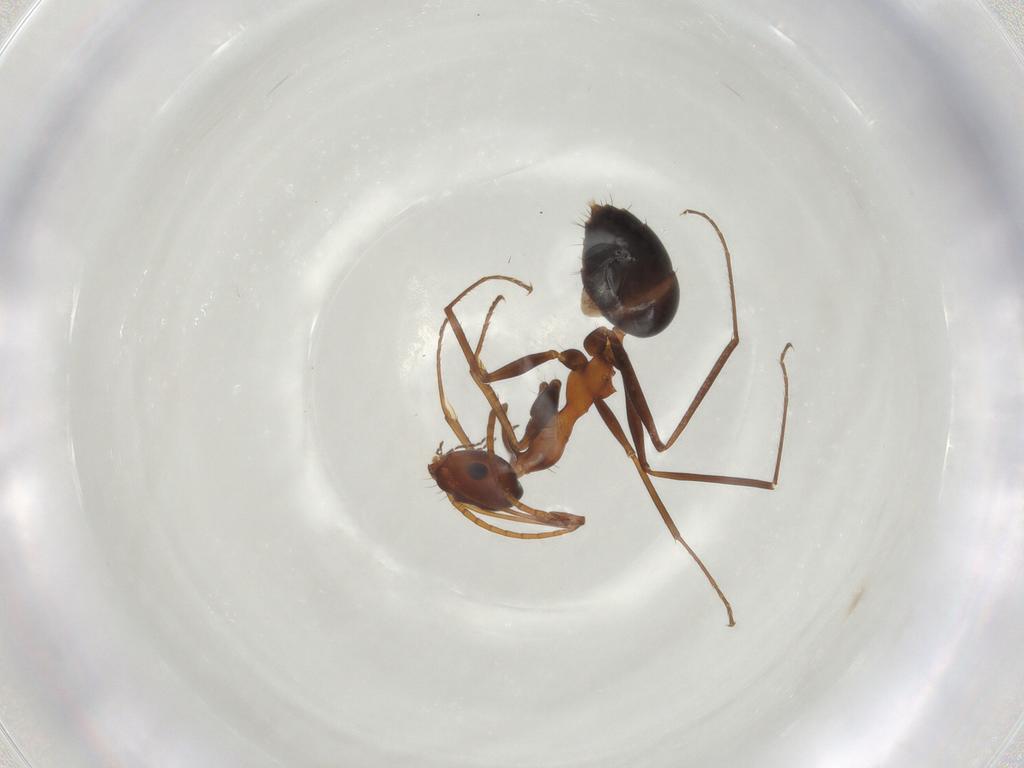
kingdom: Animalia
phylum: Arthropoda
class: Insecta
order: Hymenoptera
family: Formicidae
